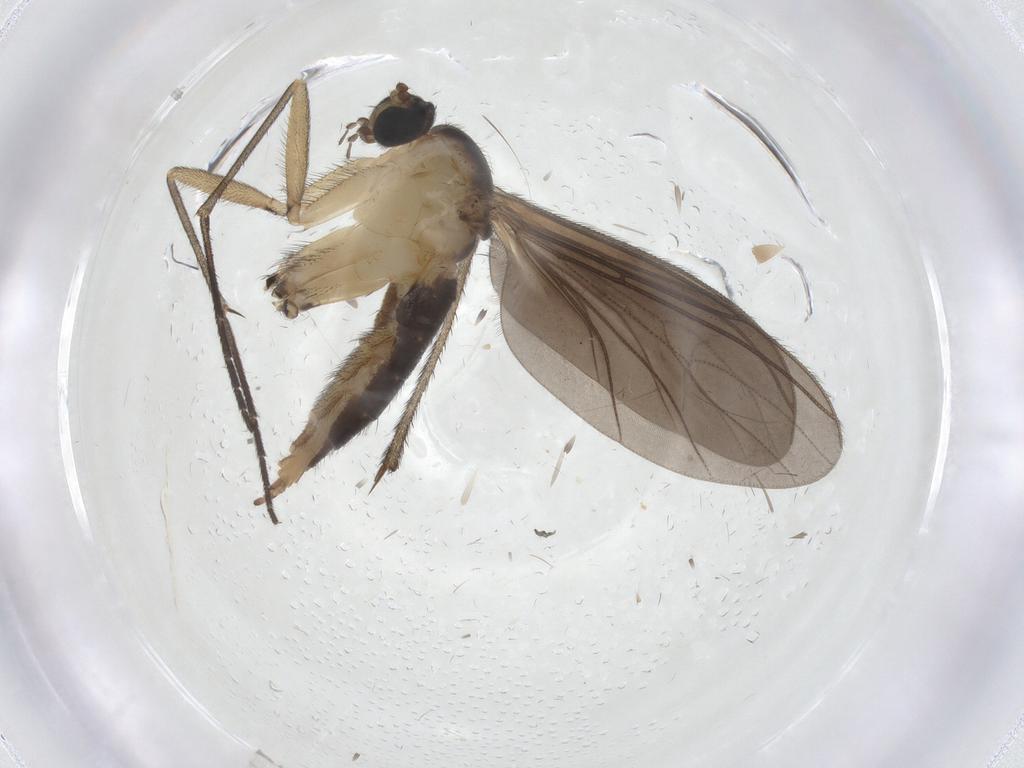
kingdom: Animalia
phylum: Arthropoda
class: Insecta
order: Diptera
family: Sciaridae
